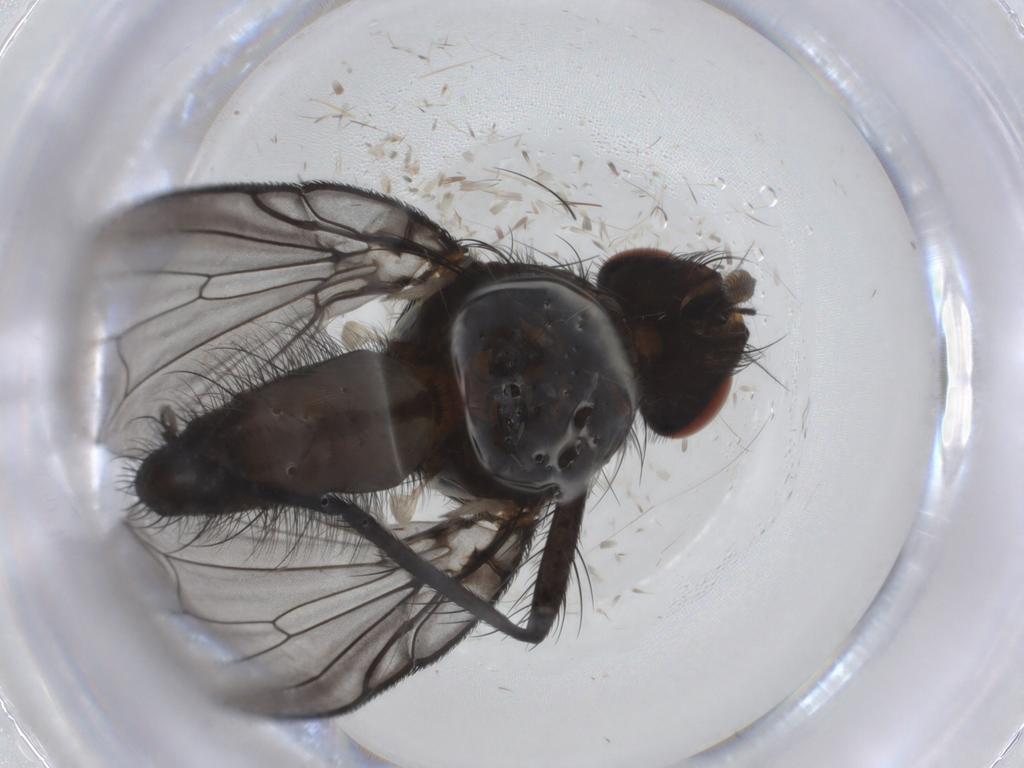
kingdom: Animalia
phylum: Arthropoda
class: Insecta
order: Diptera
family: Anthomyiidae
